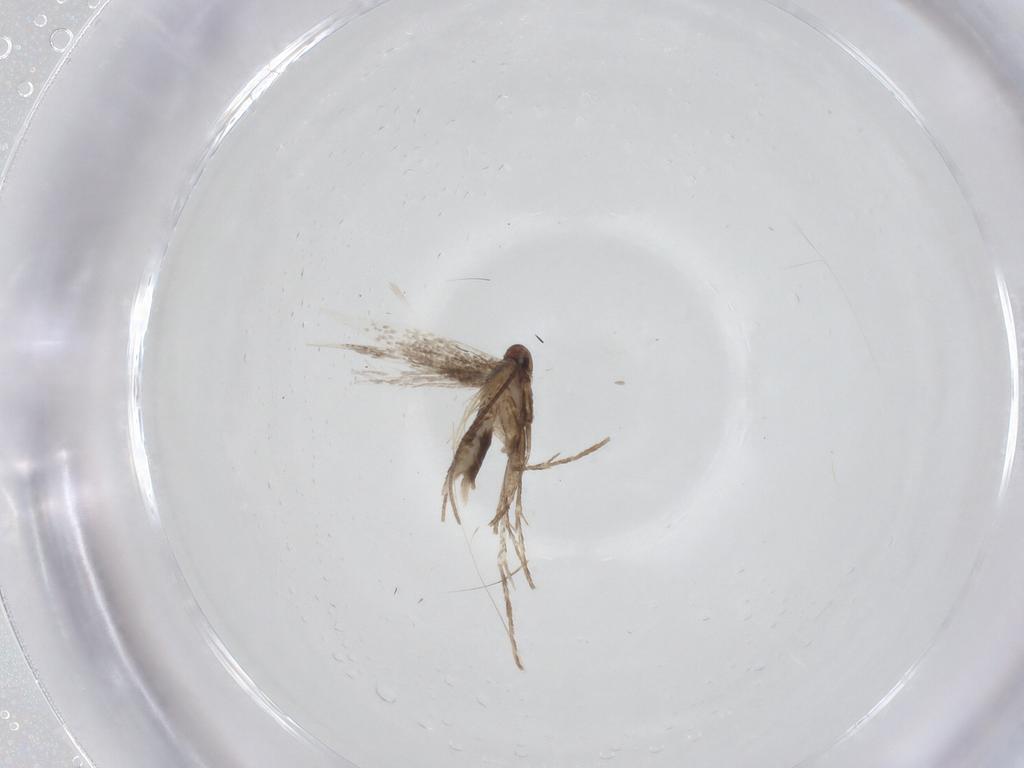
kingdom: Animalia
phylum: Arthropoda
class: Insecta
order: Lepidoptera
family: Gracillariidae
